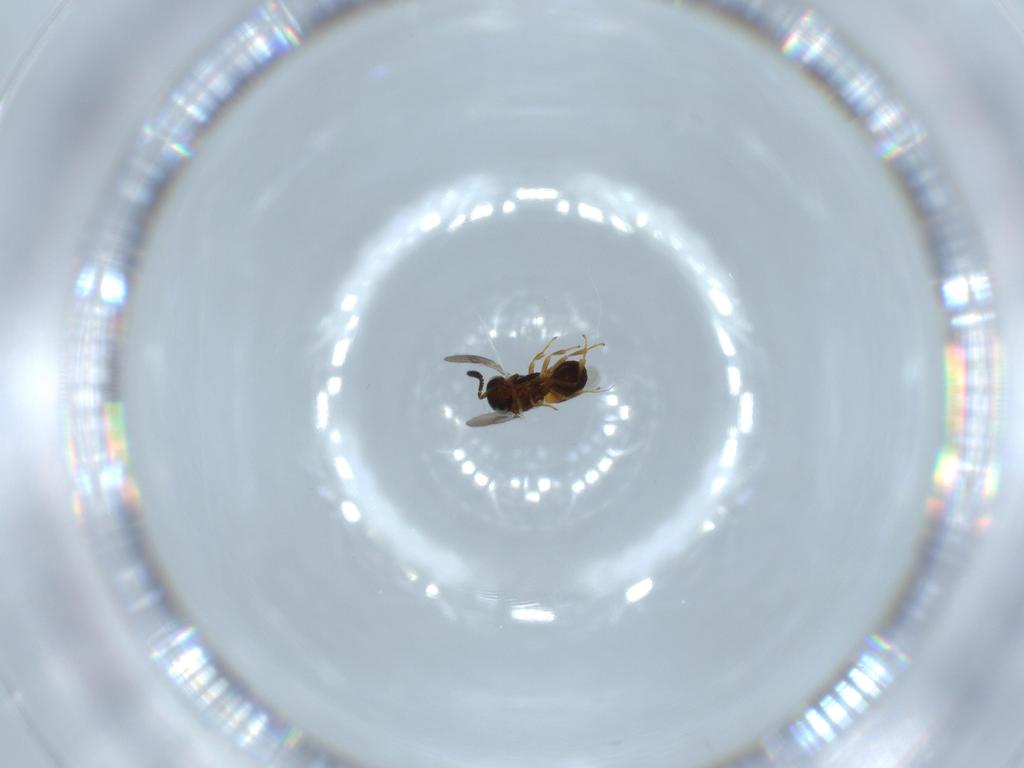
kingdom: Animalia
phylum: Arthropoda
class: Insecta
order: Hymenoptera
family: Scelionidae
